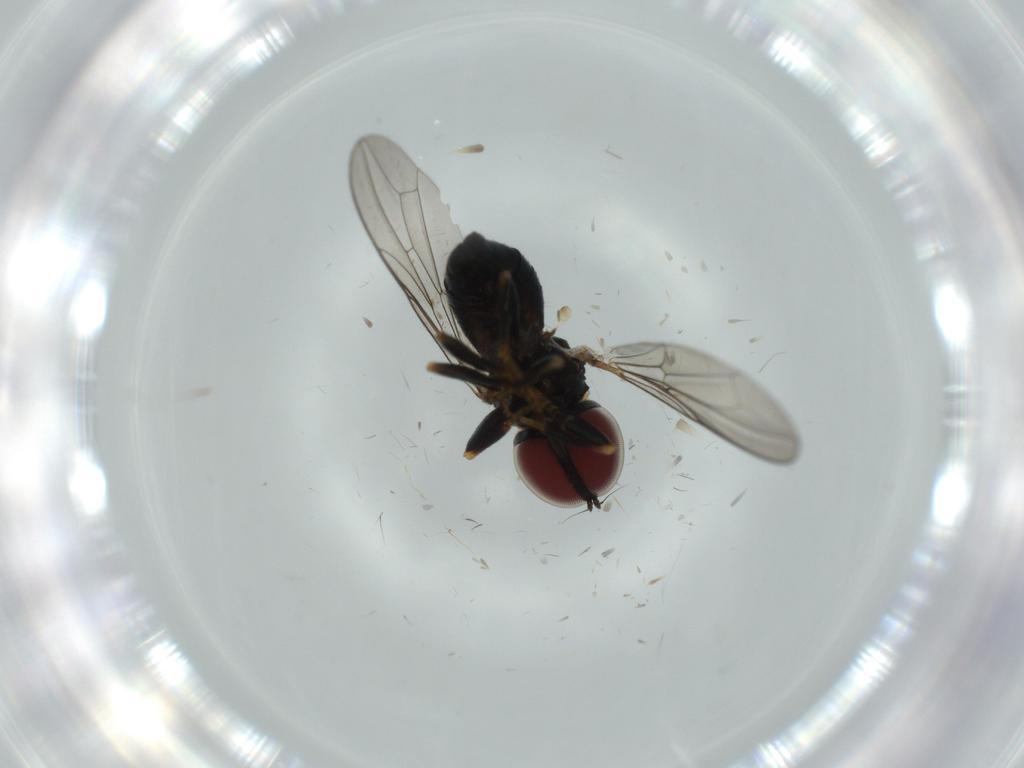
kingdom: Animalia
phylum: Arthropoda
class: Insecta
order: Diptera
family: Pipunculidae
